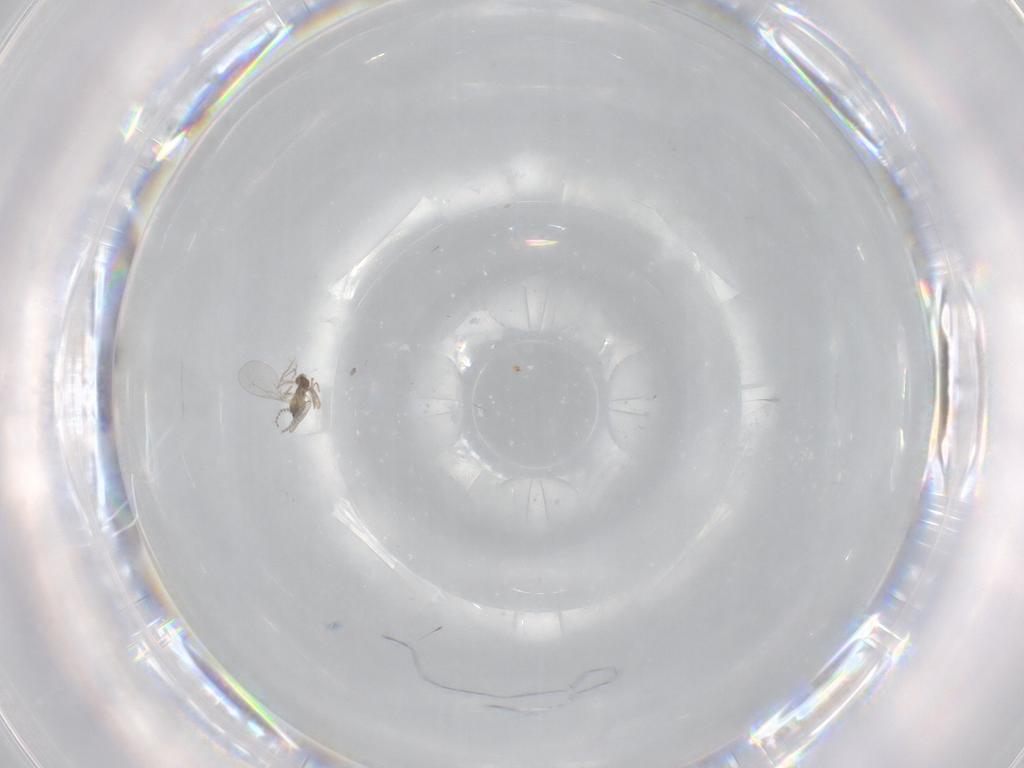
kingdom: Animalia
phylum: Arthropoda
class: Insecta
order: Diptera
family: Cecidomyiidae
